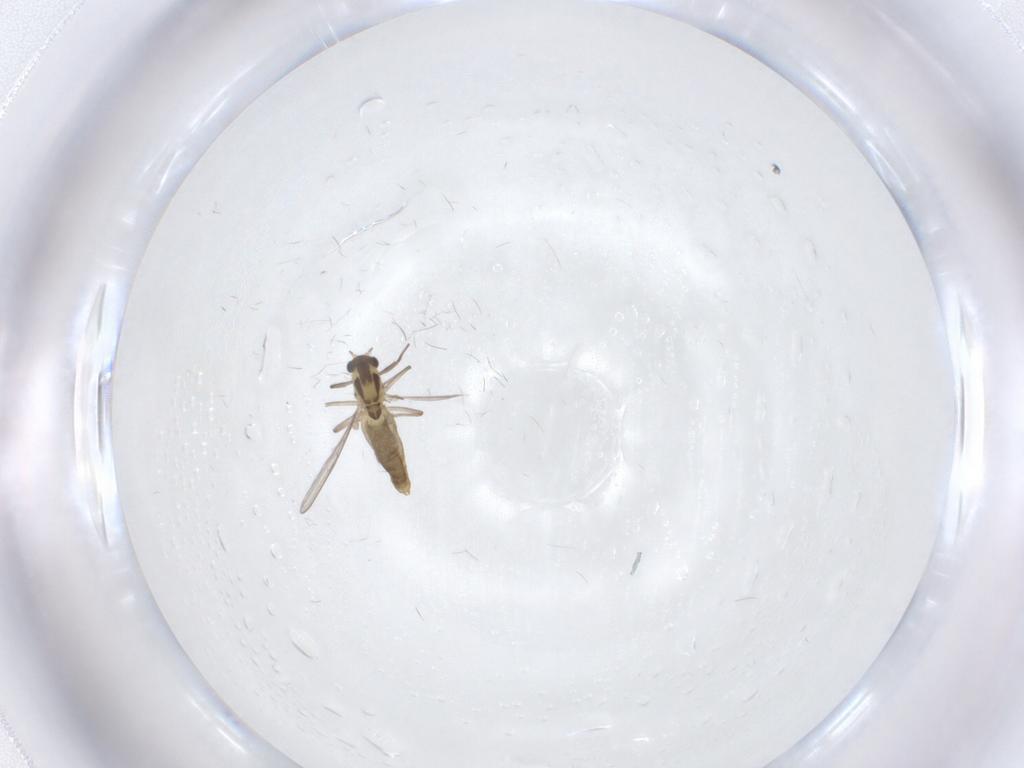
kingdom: Animalia
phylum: Arthropoda
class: Insecta
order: Diptera
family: Chironomidae
